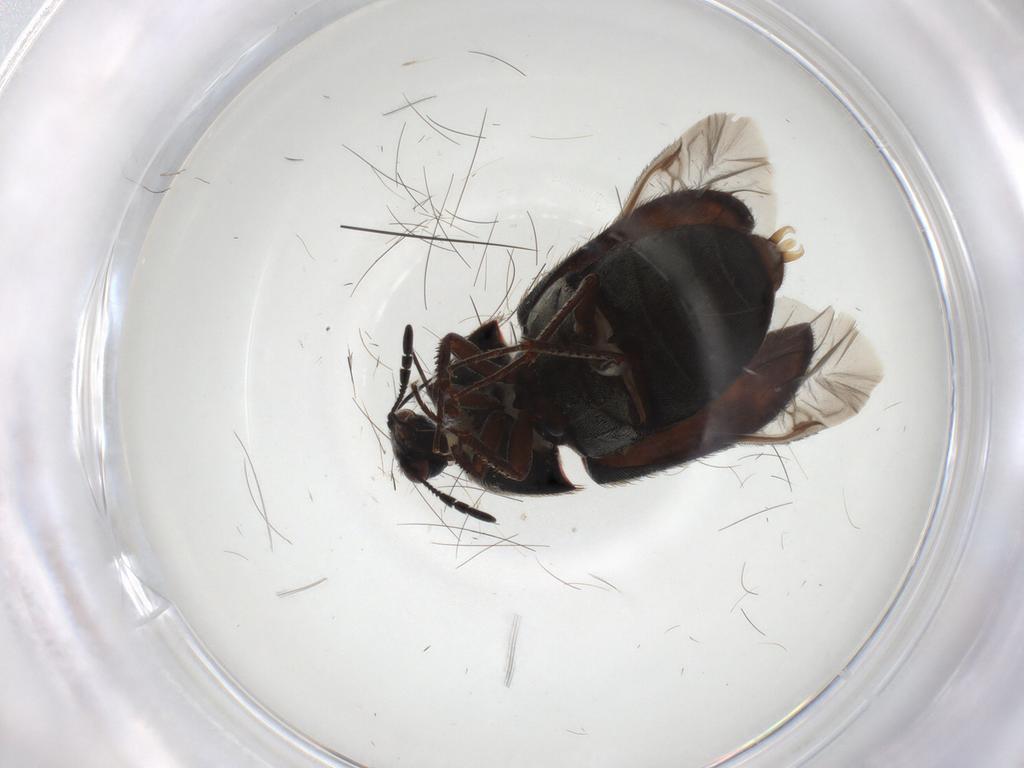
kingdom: Animalia
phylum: Arthropoda
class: Insecta
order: Coleoptera
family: Dermestidae
